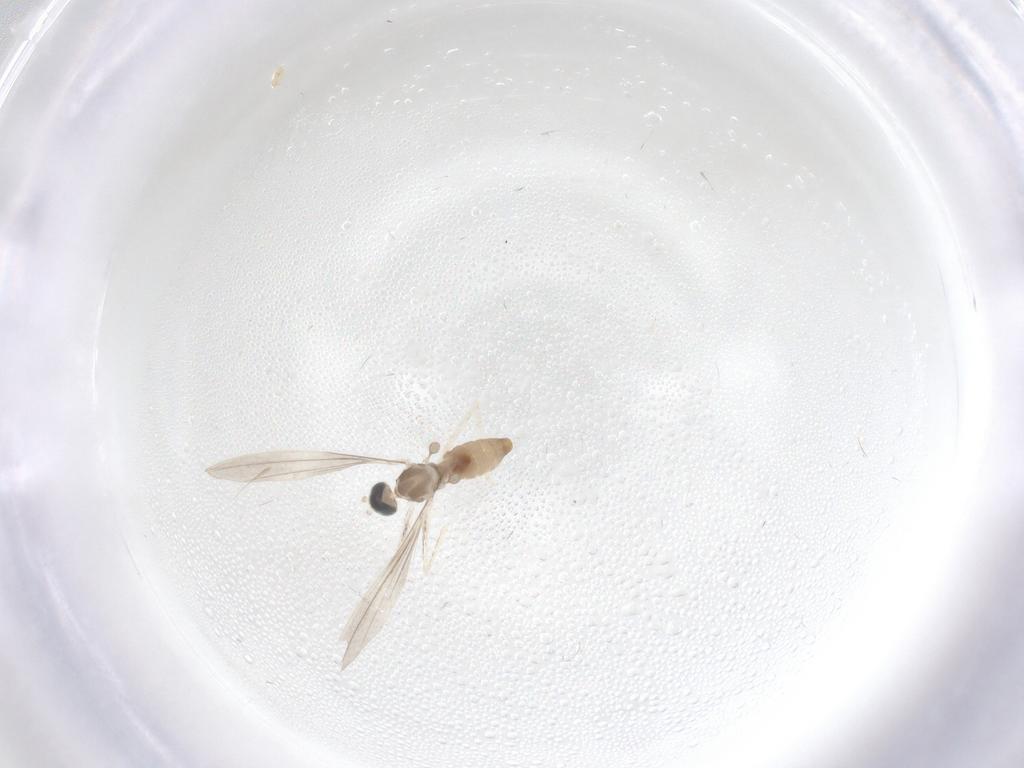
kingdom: Animalia
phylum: Arthropoda
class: Insecta
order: Diptera
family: Cecidomyiidae
